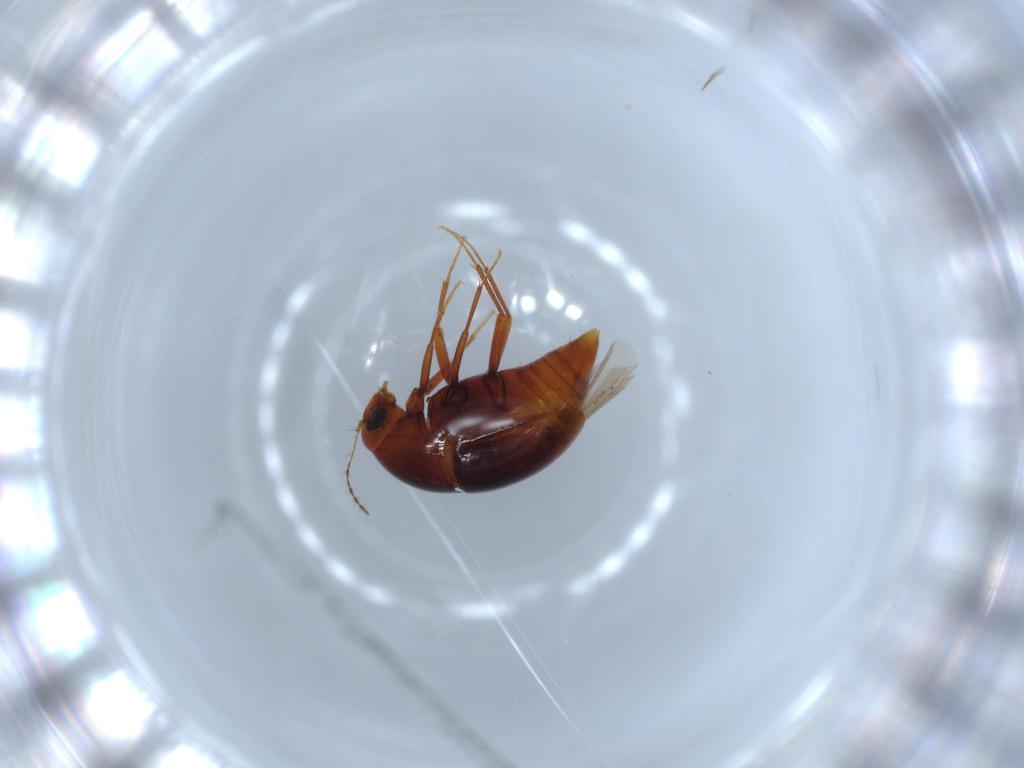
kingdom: Animalia
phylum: Arthropoda
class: Insecta
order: Coleoptera
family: Staphylinidae
